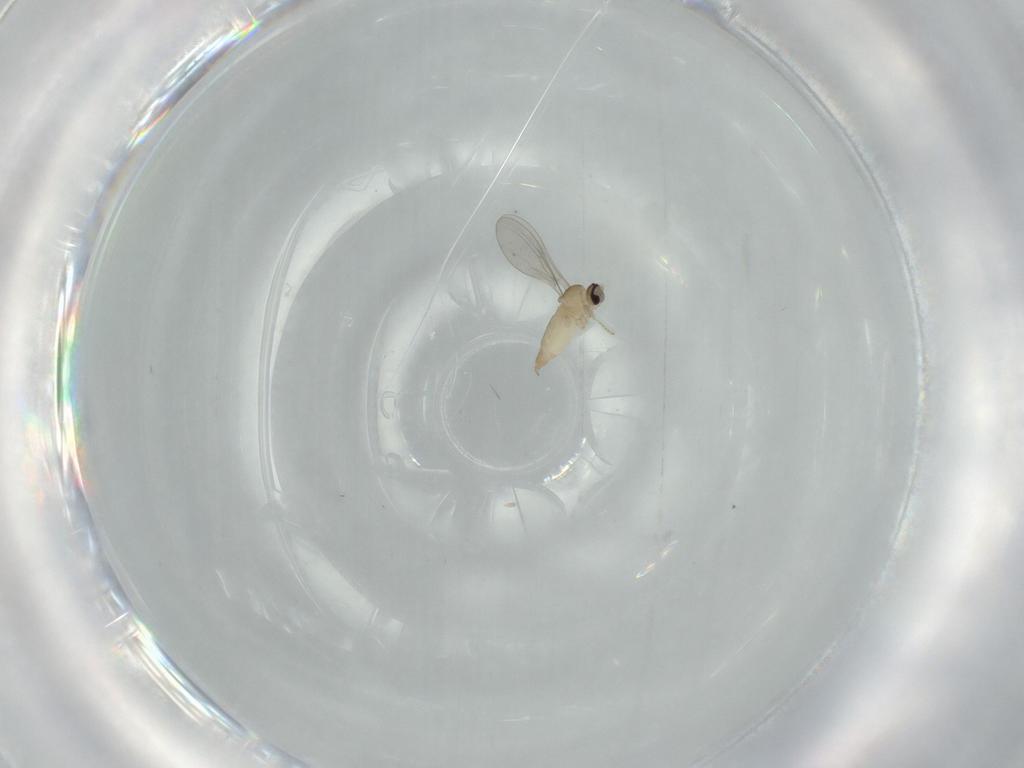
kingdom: Animalia
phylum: Arthropoda
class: Insecta
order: Diptera
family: Cecidomyiidae
